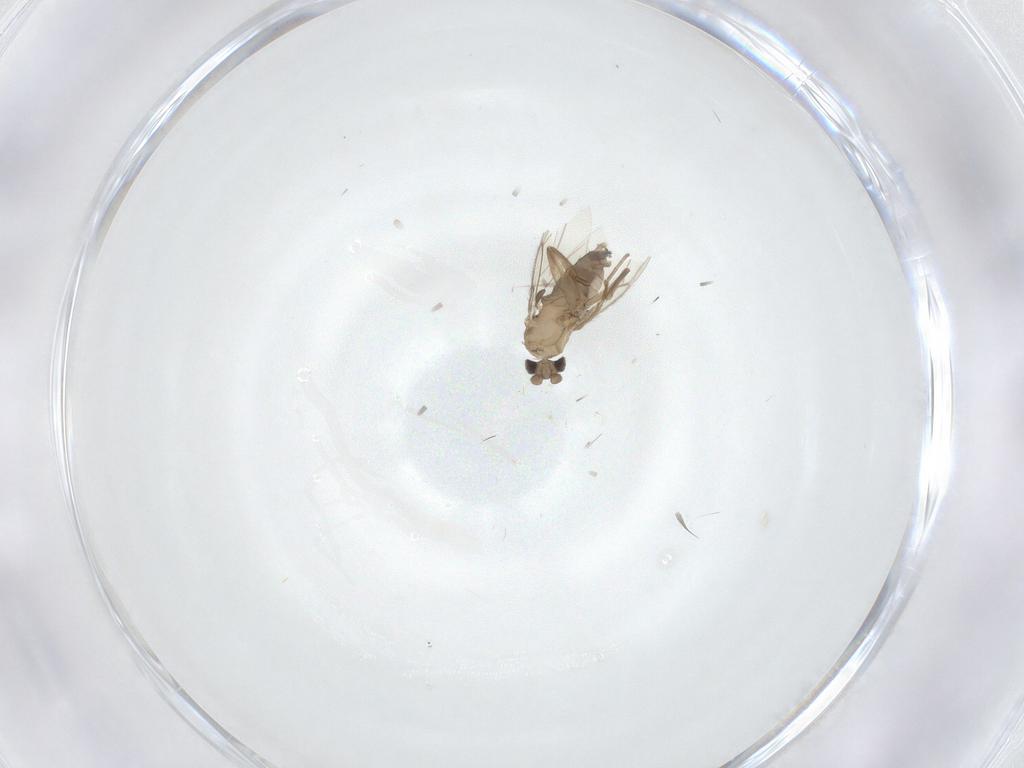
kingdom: Animalia
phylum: Arthropoda
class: Insecta
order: Diptera
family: Phoridae
